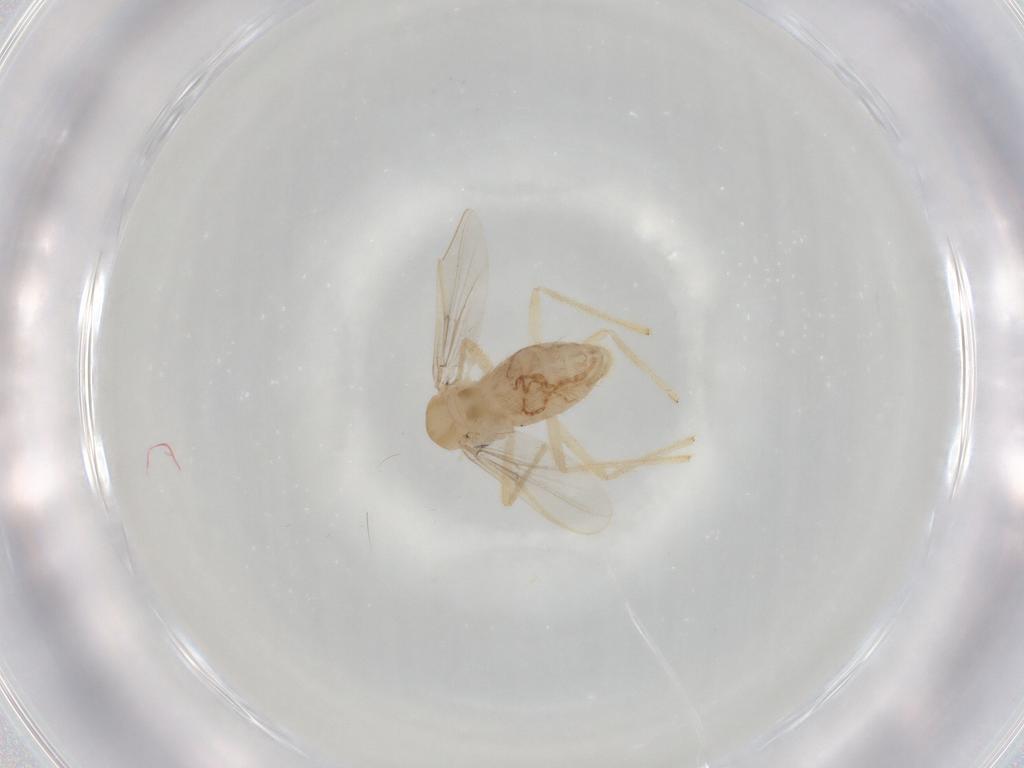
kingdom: Animalia
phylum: Arthropoda
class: Insecta
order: Diptera
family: Chironomidae
